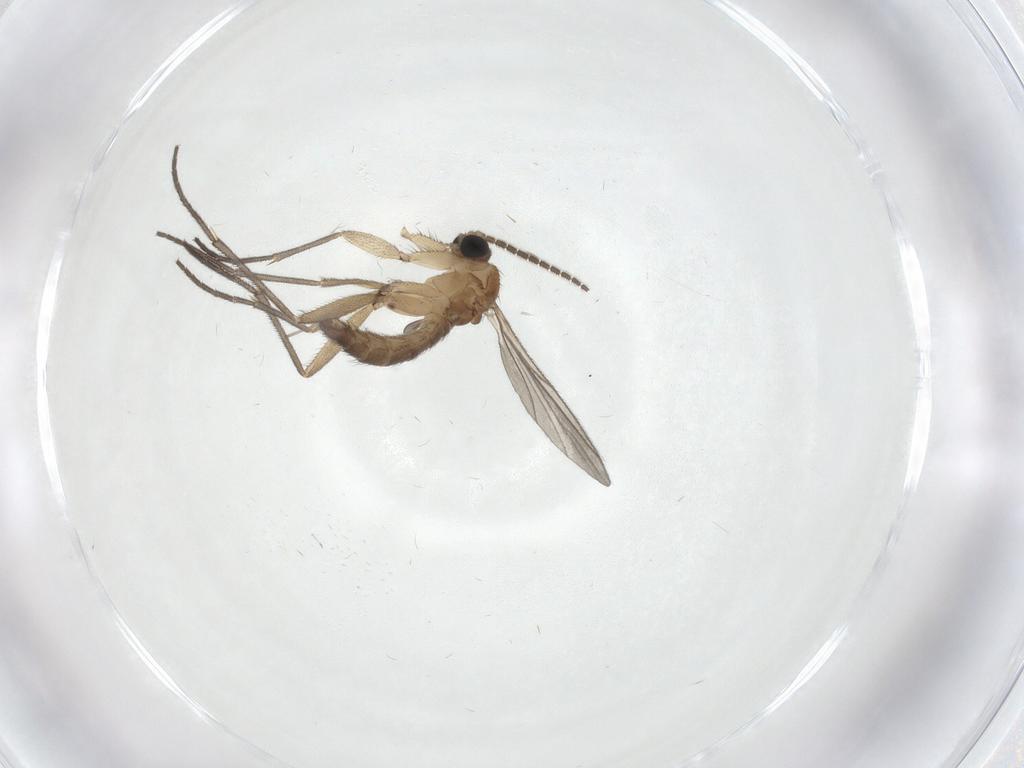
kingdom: Animalia
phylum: Arthropoda
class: Insecta
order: Diptera
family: Sciaridae
